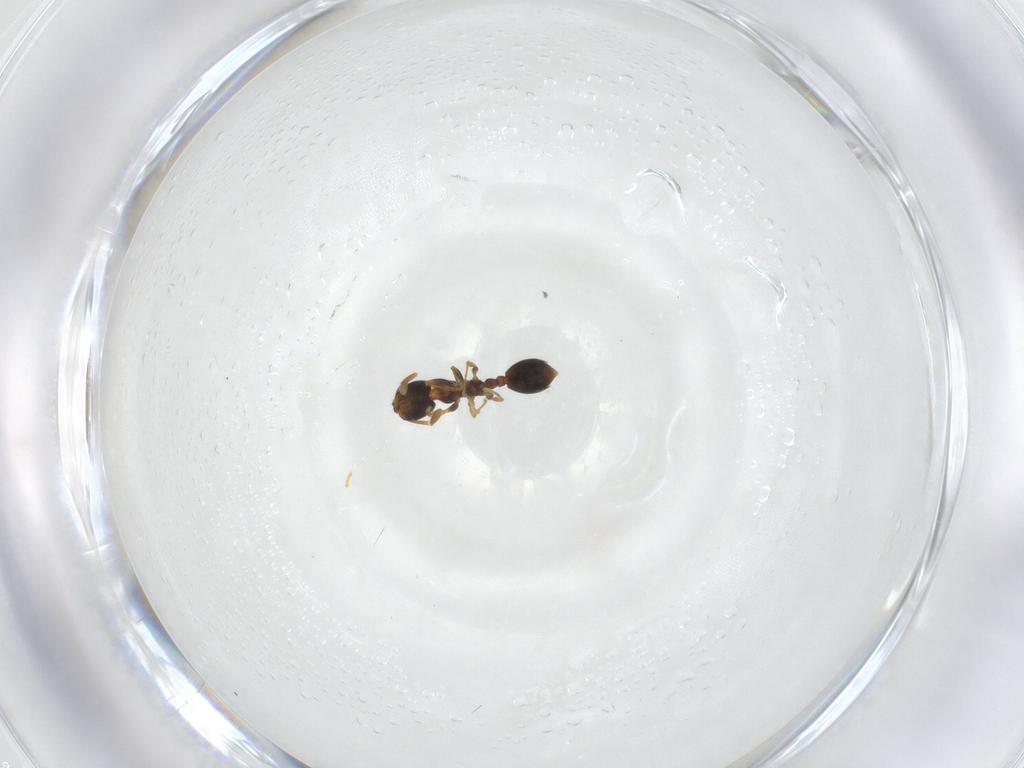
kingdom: Animalia
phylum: Arthropoda
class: Insecta
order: Hymenoptera
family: Formicidae
